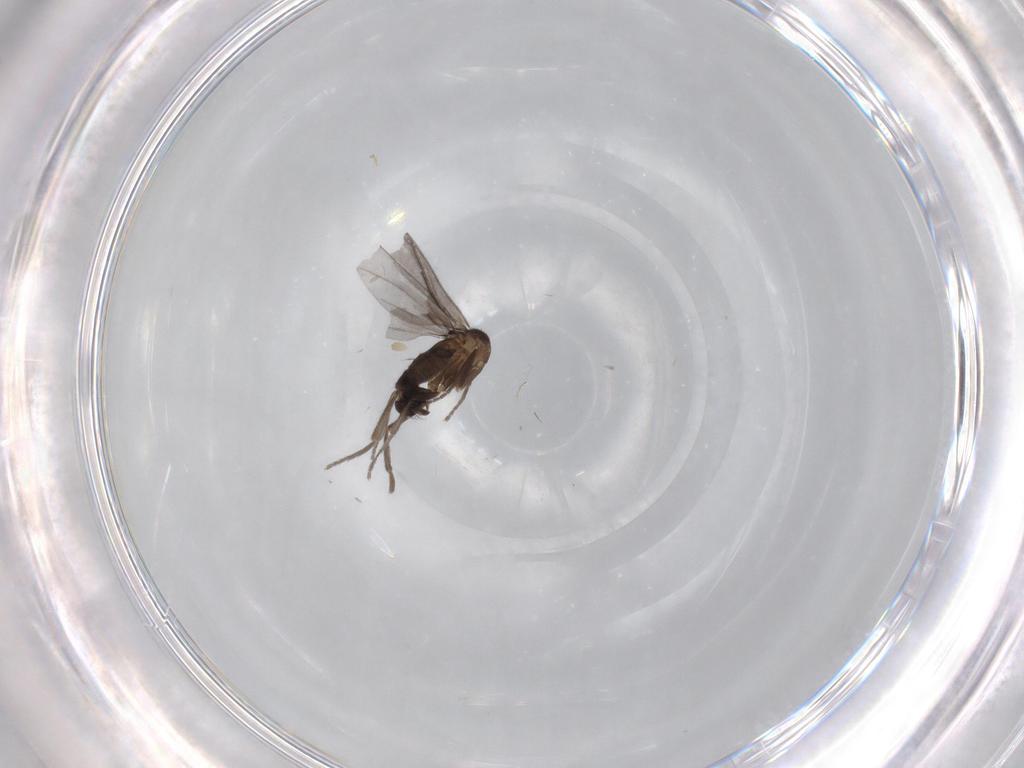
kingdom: Animalia
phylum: Arthropoda
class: Insecta
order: Diptera
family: Phoridae
